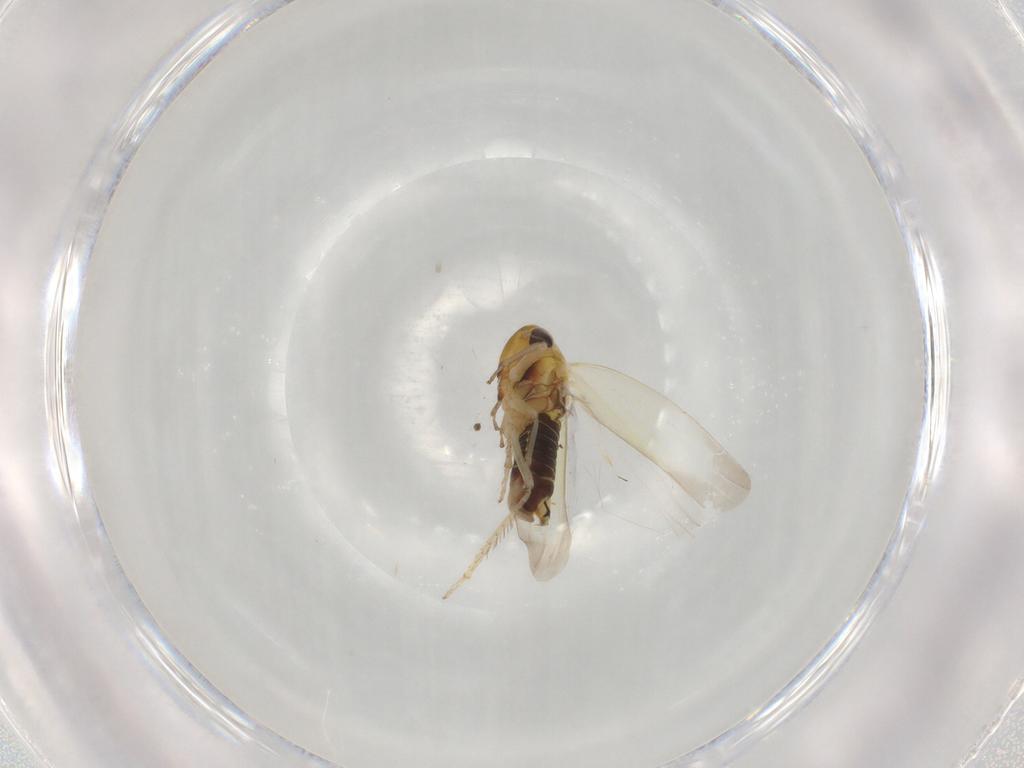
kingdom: Animalia
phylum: Arthropoda
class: Insecta
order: Hemiptera
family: Cicadellidae
